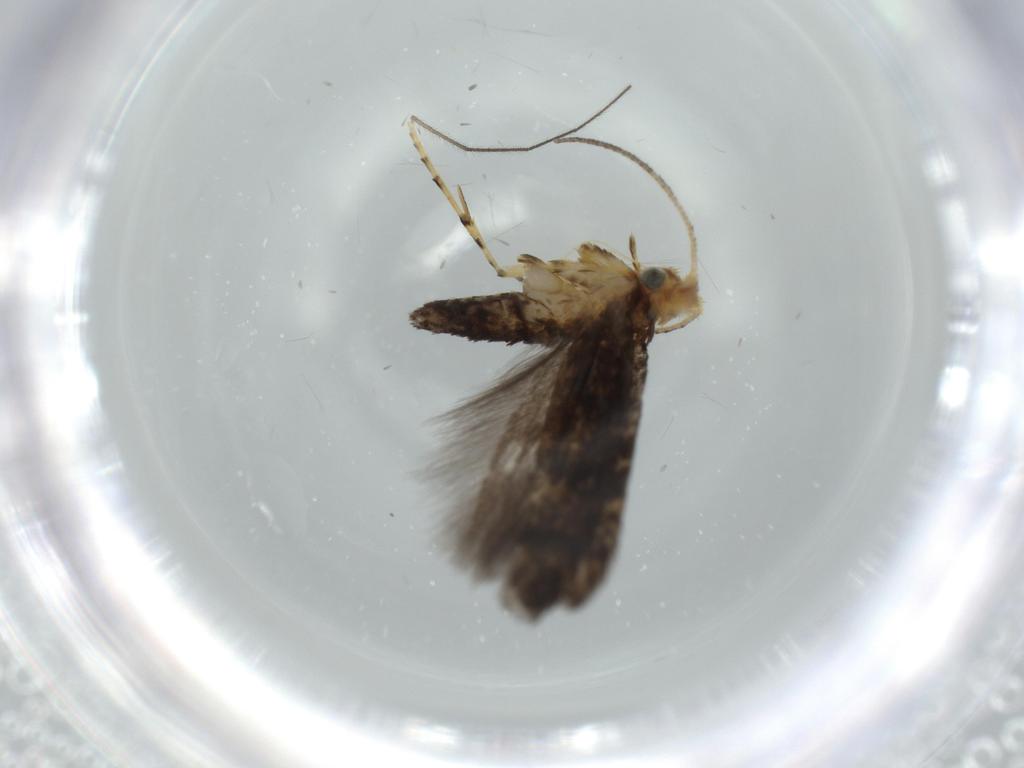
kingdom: Animalia
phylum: Arthropoda
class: Insecta
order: Lepidoptera
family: Argyresthiidae
